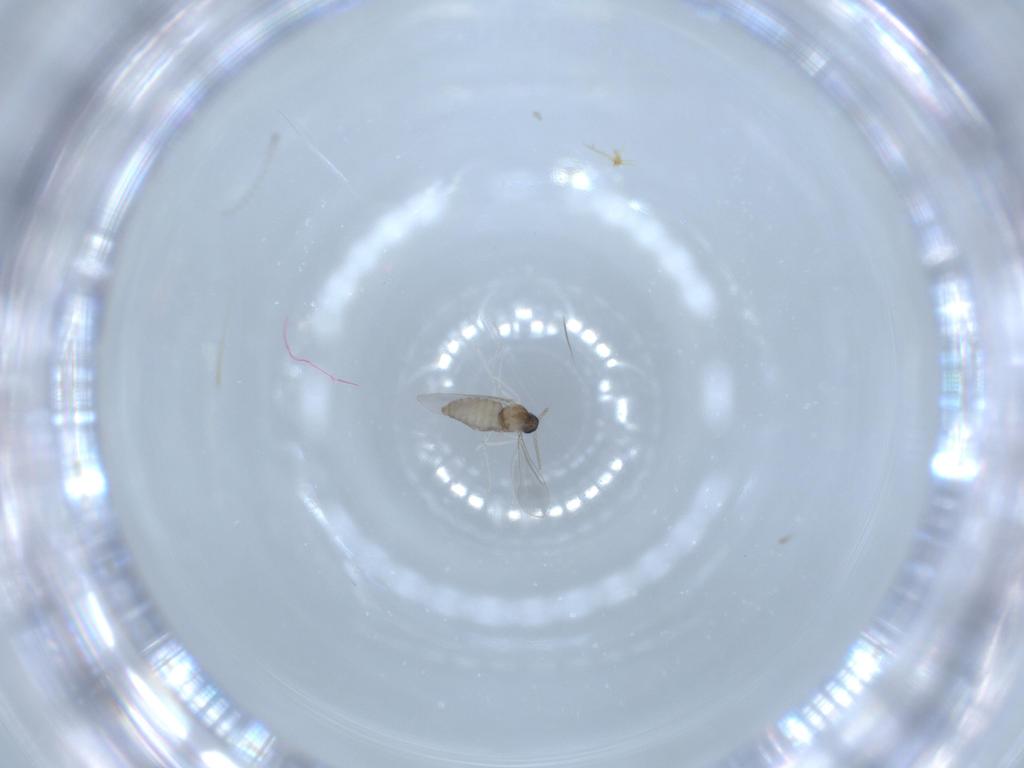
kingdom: Animalia
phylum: Arthropoda
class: Insecta
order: Diptera
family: Cecidomyiidae
